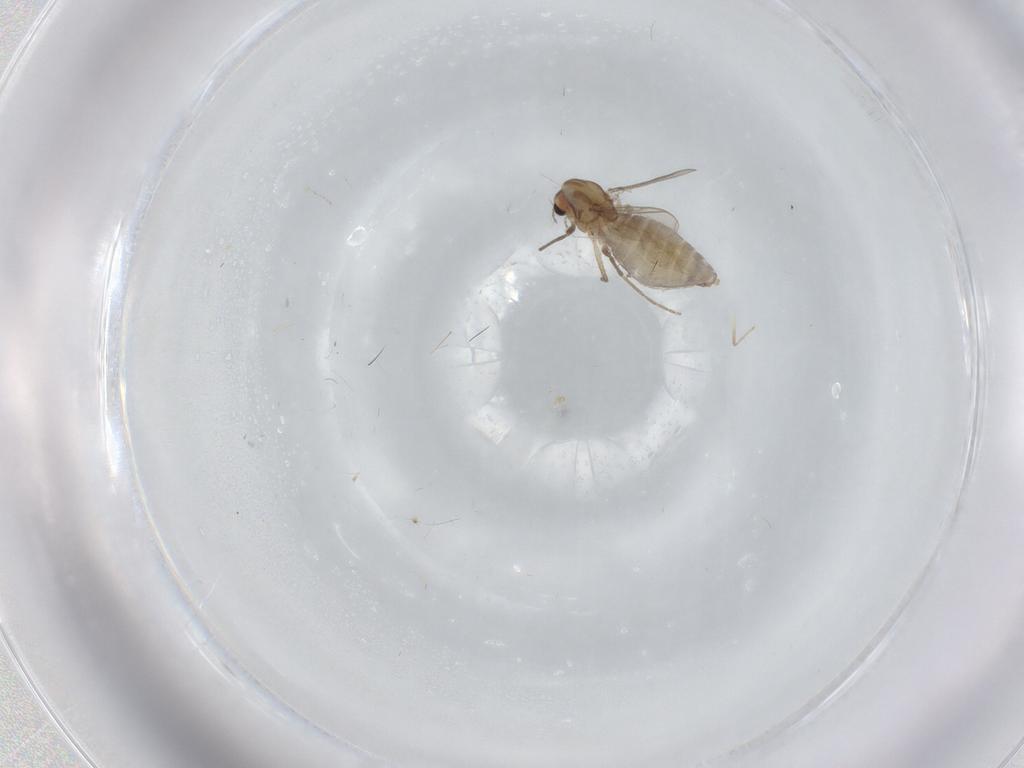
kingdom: Animalia
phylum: Arthropoda
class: Insecta
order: Diptera
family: Chironomidae
